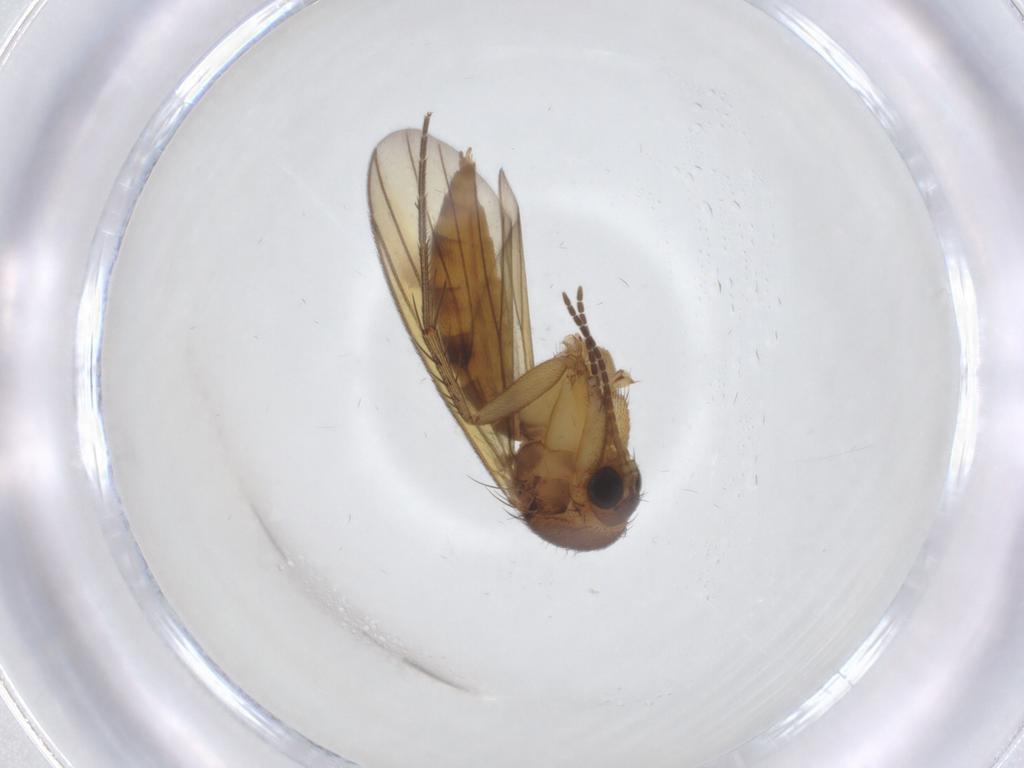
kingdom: Animalia
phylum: Arthropoda
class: Insecta
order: Diptera
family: Mycetophilidae
